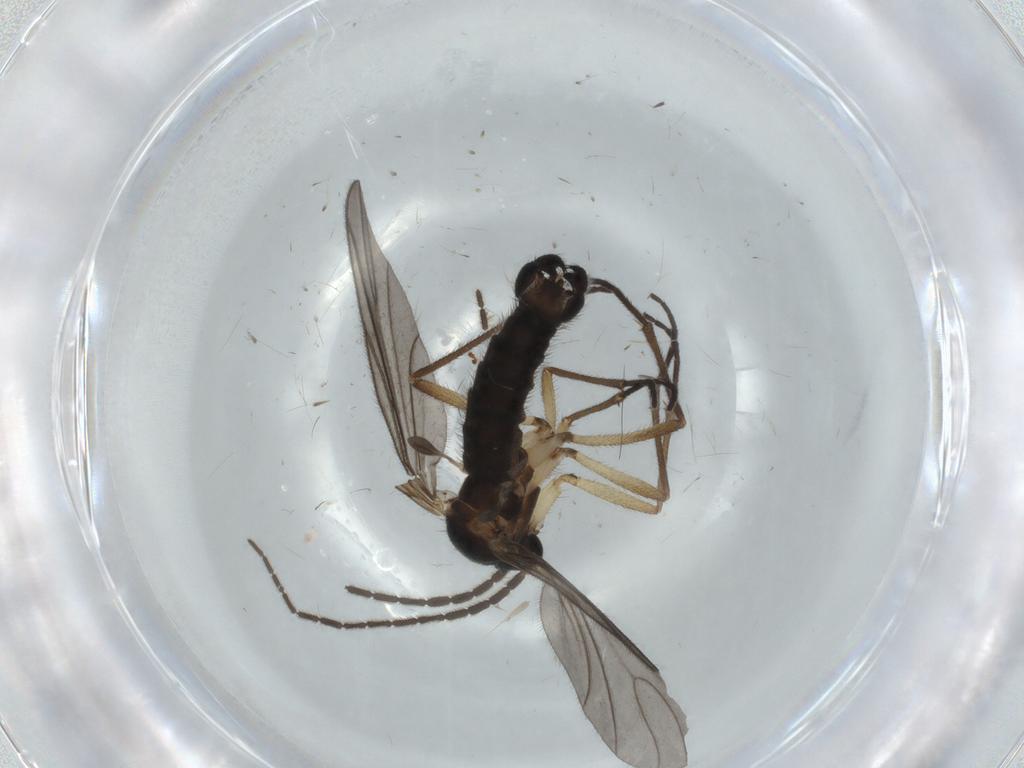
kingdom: Animalia
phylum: Arthropoda
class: Insecta
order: Diptera
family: Sciaridae
